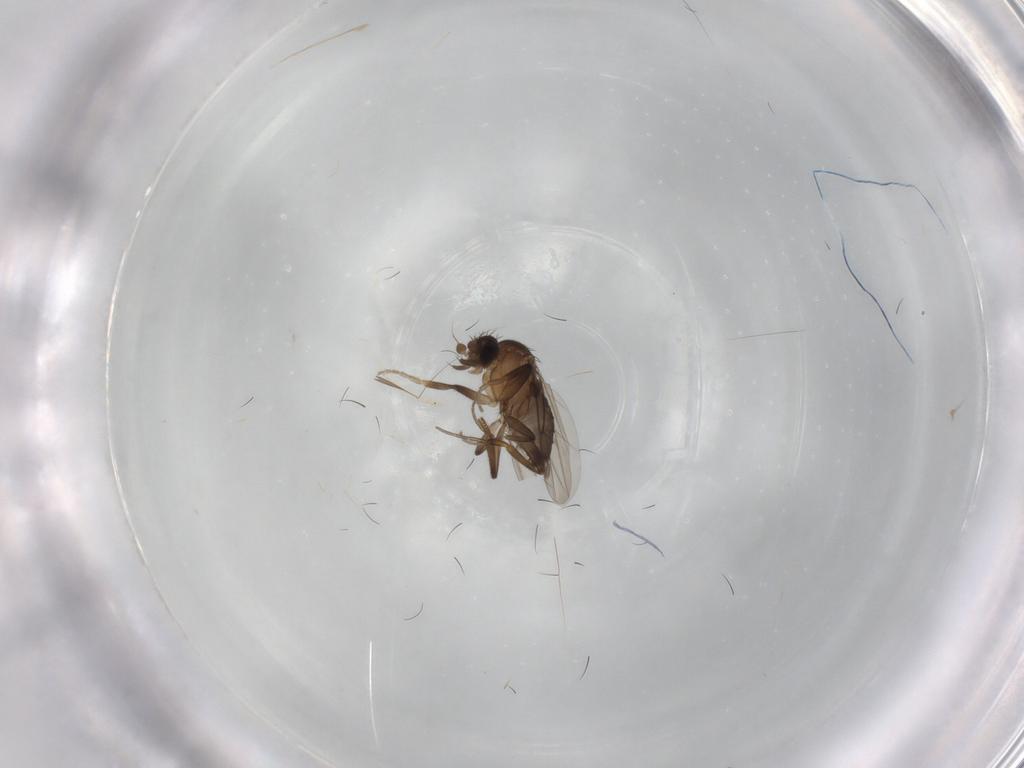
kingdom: Animalia
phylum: Arthropoda
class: Insecta
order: Diptera
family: Phoridae
